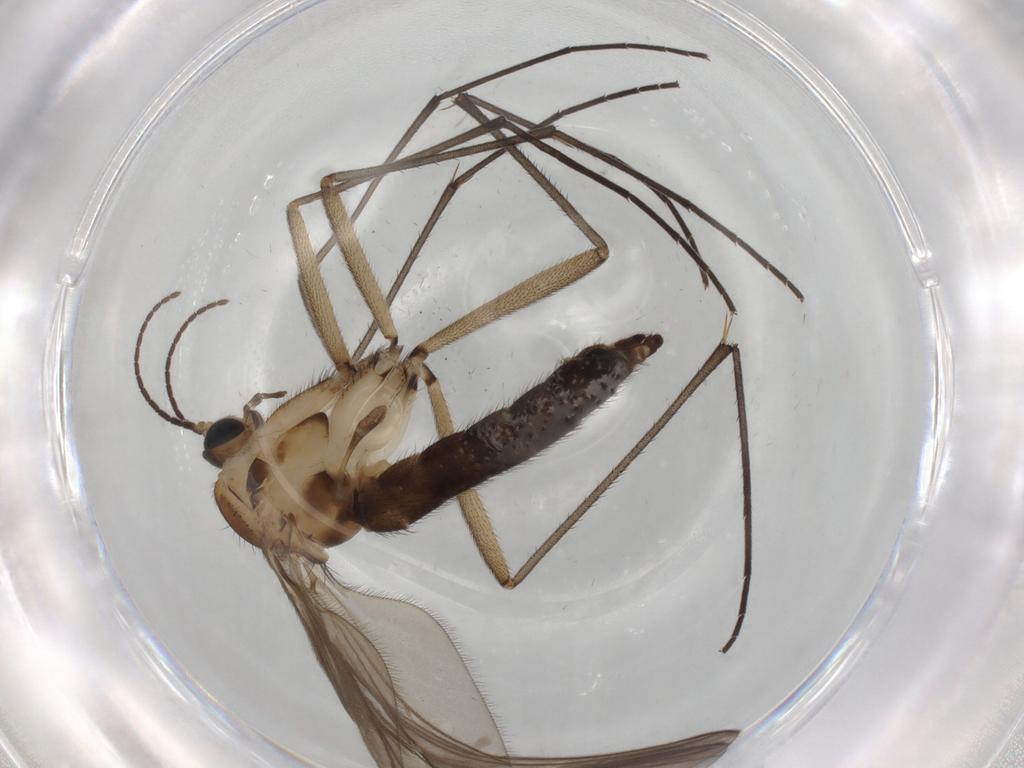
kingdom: Animalia
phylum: Arthropoda
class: Insecta
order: Diptera
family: Sciaridae
